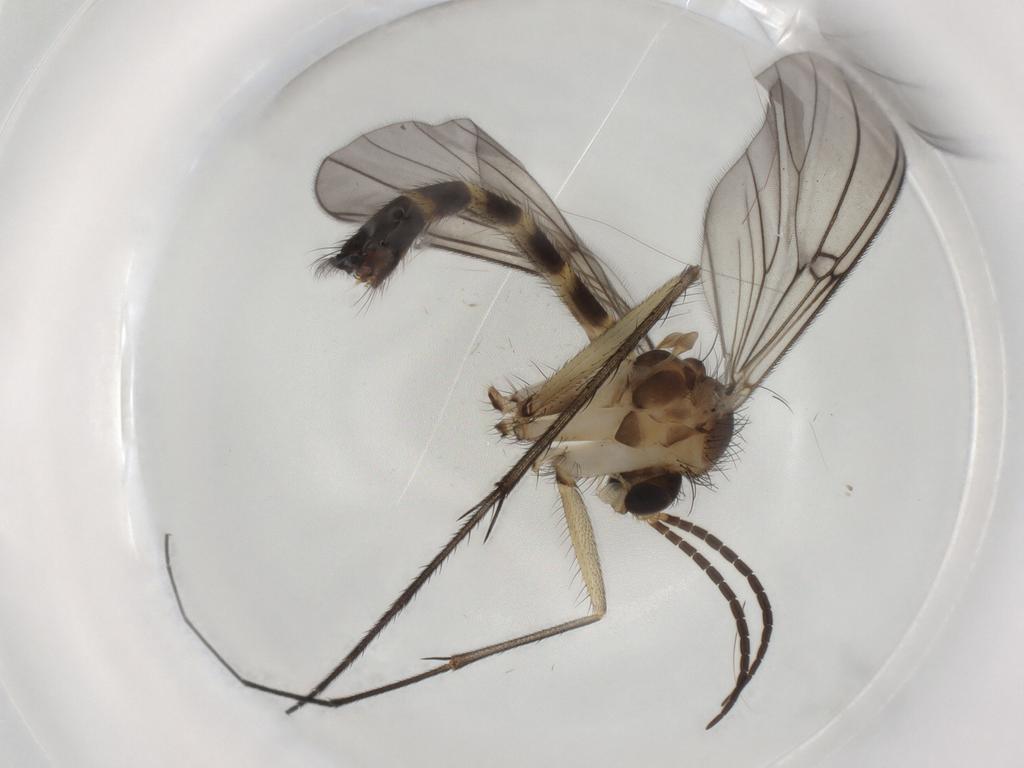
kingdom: Animalia
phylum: Arthropoda
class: Insecta
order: Diptera
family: Mycetophilidae
